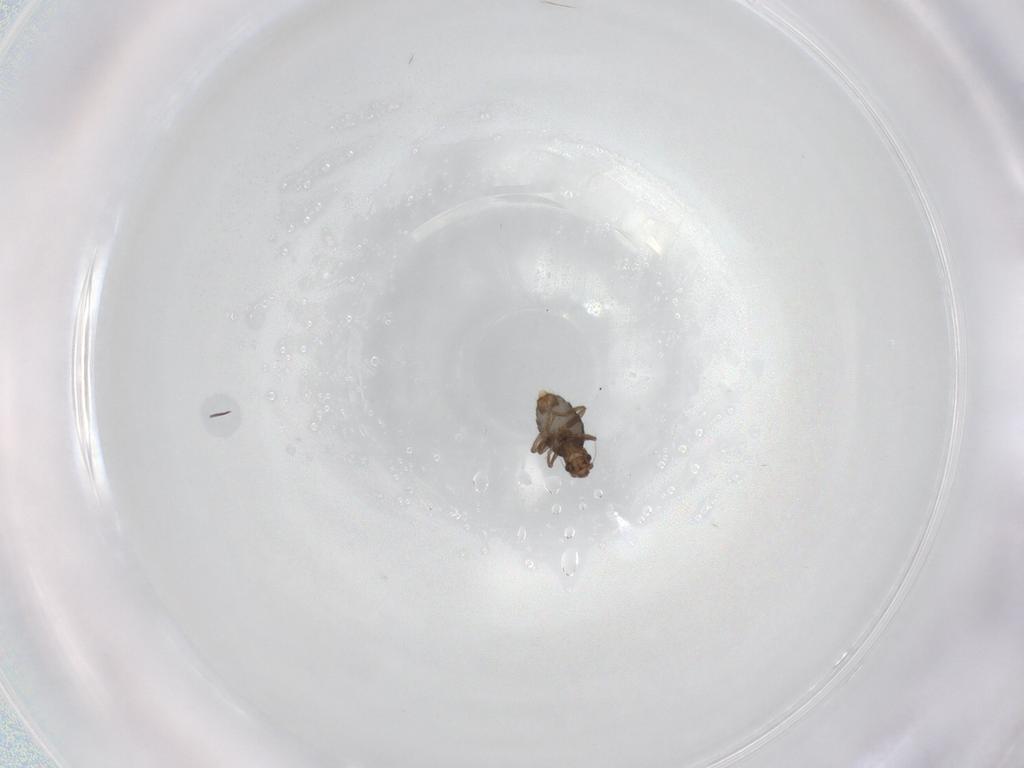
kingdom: Animalia
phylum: Arthropoda
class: Insecta
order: Diptera
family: Phoridae
